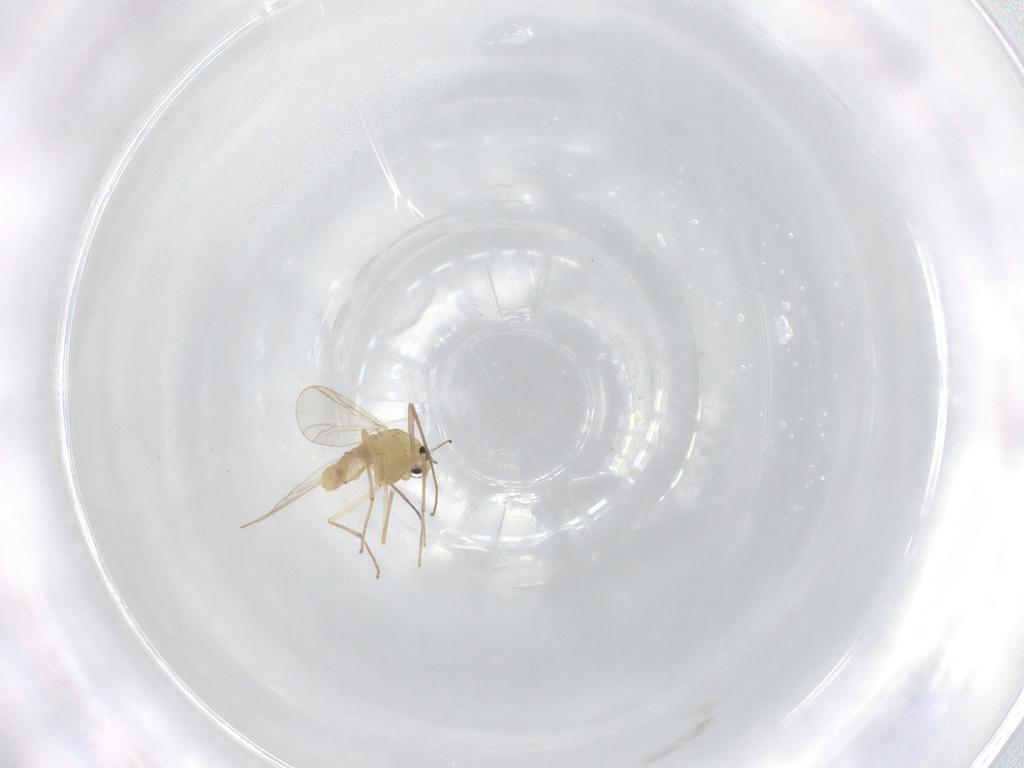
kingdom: Animalia
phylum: Arthropoda
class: Insecta
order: Diptera
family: Chironomidae
